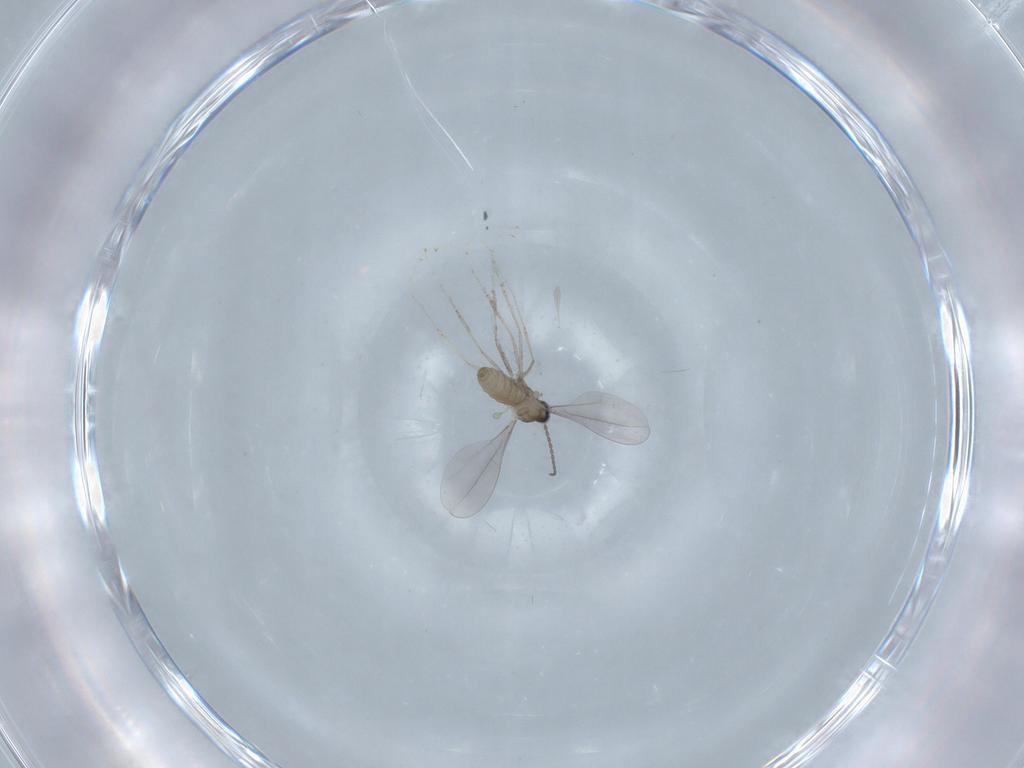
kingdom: Animalia
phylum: Arthropoda
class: Insecta
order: Diptera
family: Cecidomyiidae
